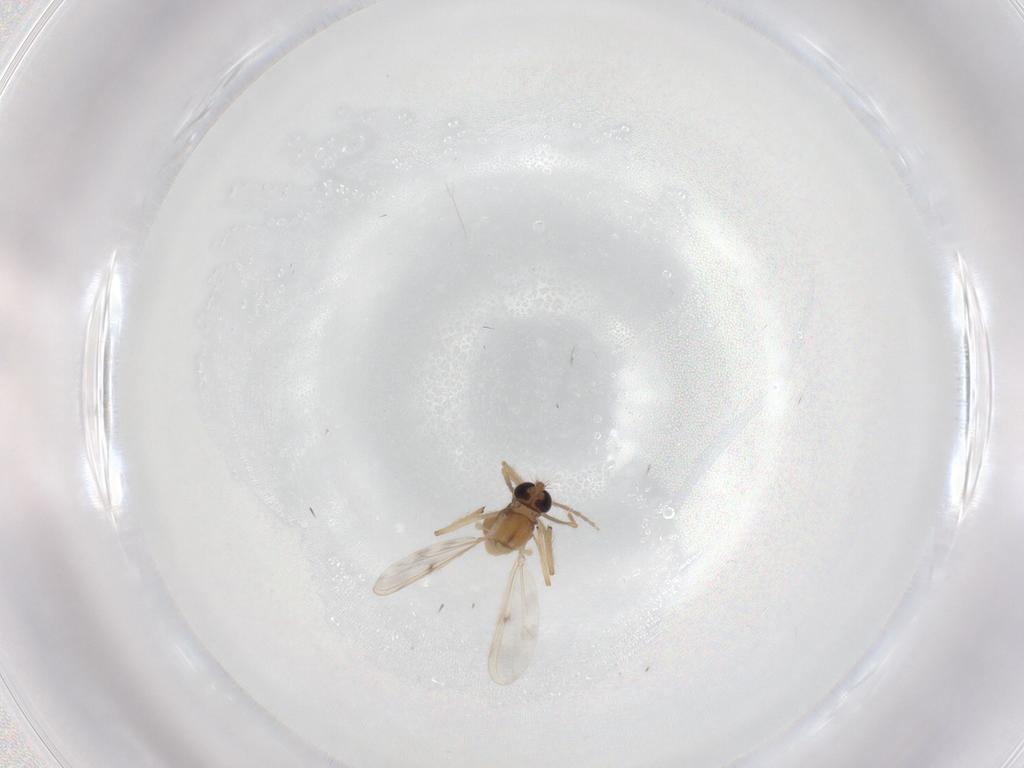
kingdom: Animalia
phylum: Arthropoda
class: Insecta
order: Diptera
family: Chironomidae
